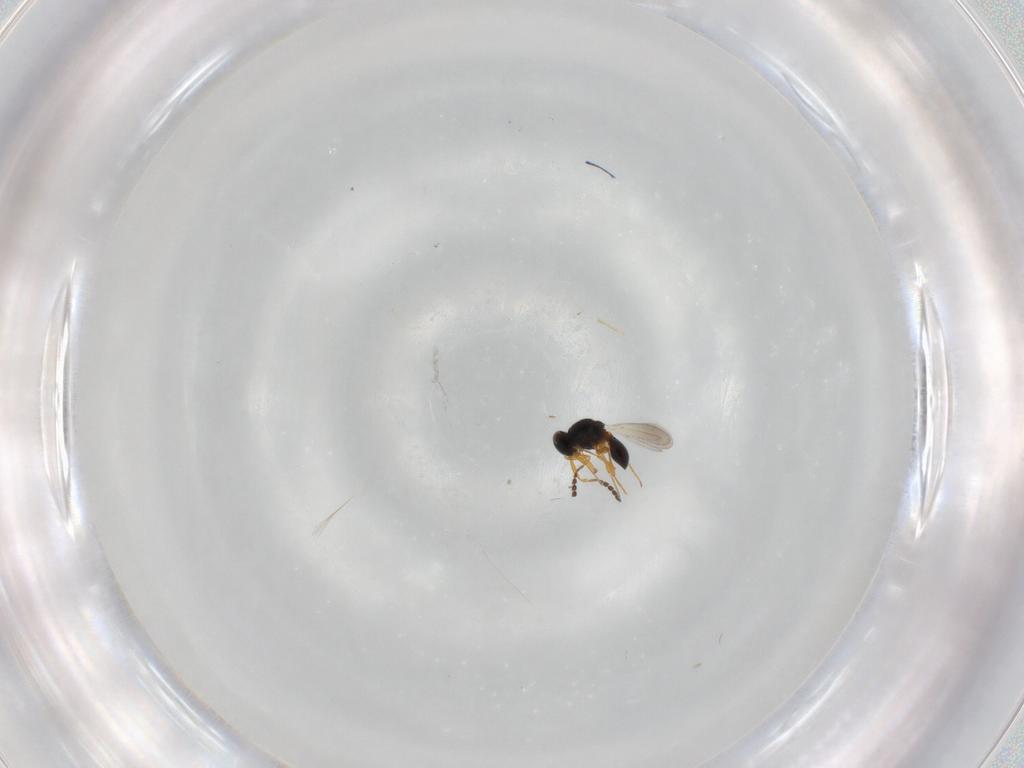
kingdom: Animalia
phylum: Arthropoda
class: Insecta
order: Hymenoptera
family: Platygastridae
